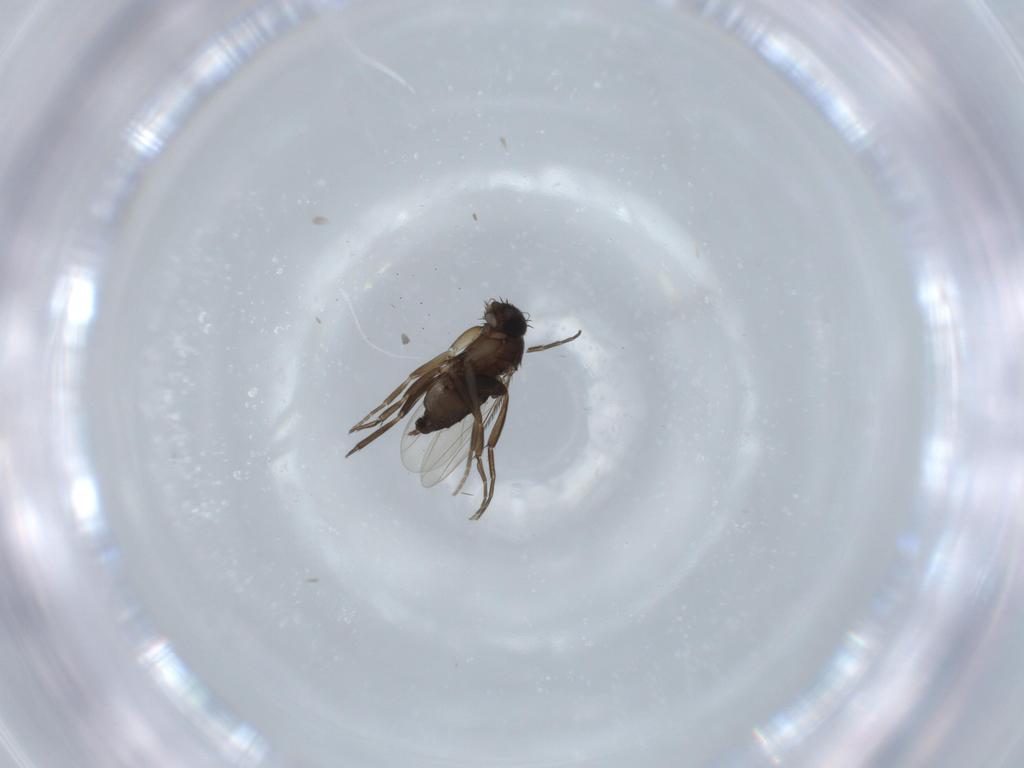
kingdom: Animalia
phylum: Arthropoda
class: Insecta
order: Diptera
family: Phoridae
